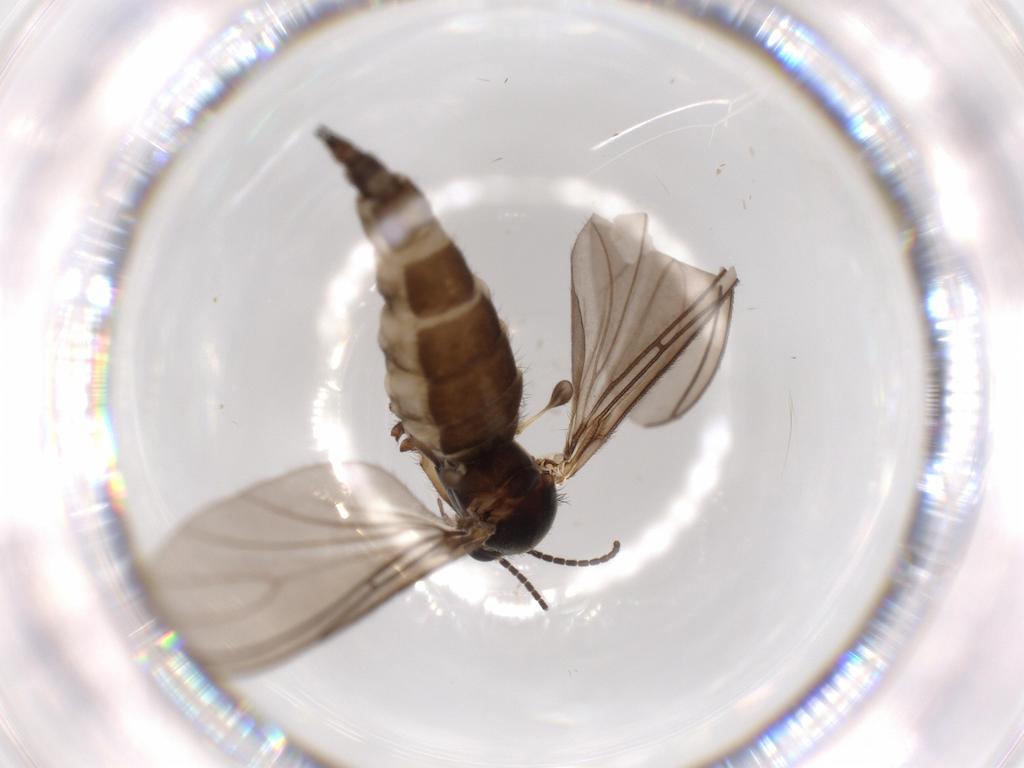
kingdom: Animalia
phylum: Arthropoda
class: Insecta
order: Diptera
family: Sciaridae
